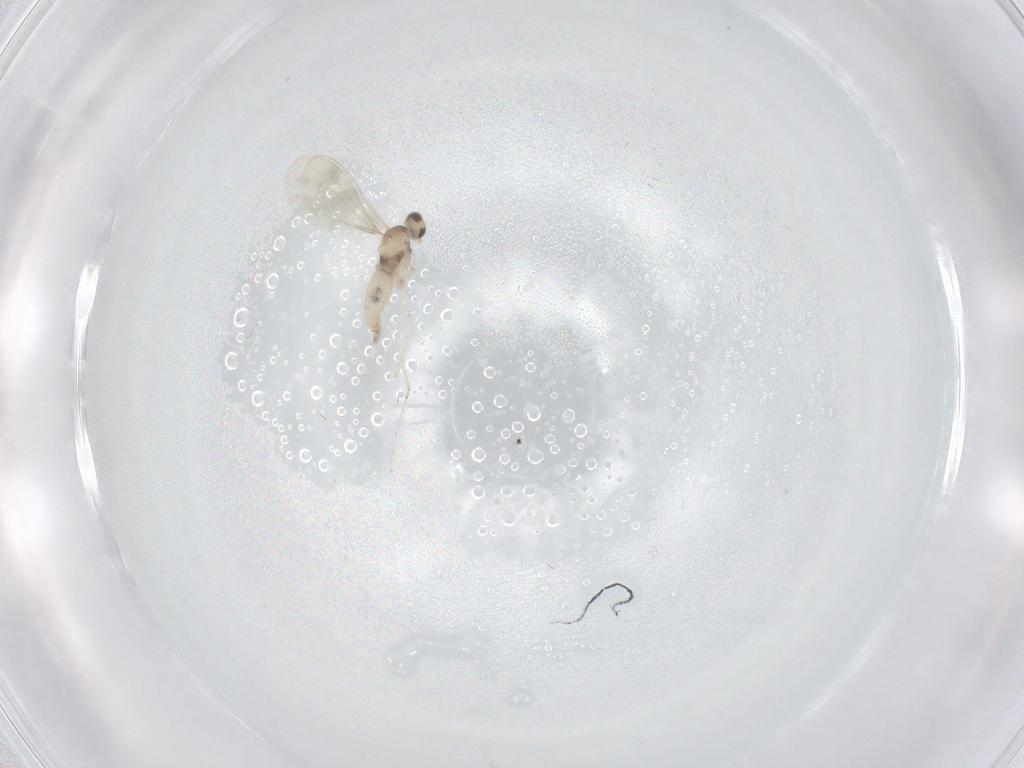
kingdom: Animalia
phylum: Arthropoda
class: Insecta
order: Diptera
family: Cecidomyiidae
